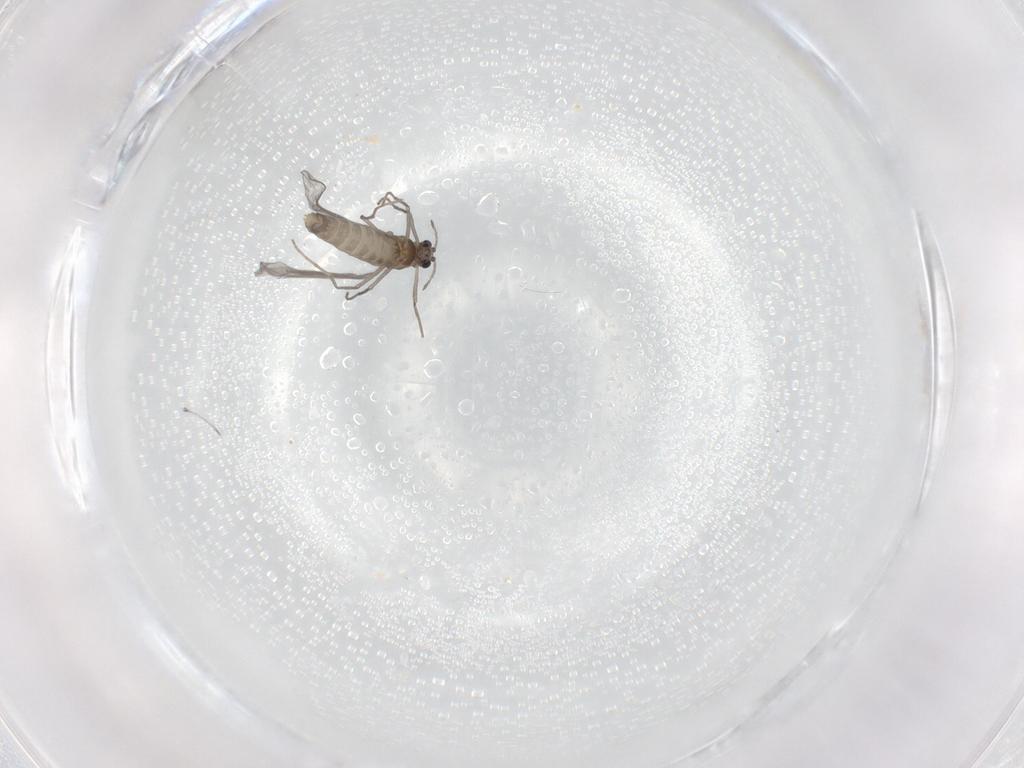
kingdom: Animalia
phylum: Arthropoda
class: Insecta
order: Diptera
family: Chironomidae
